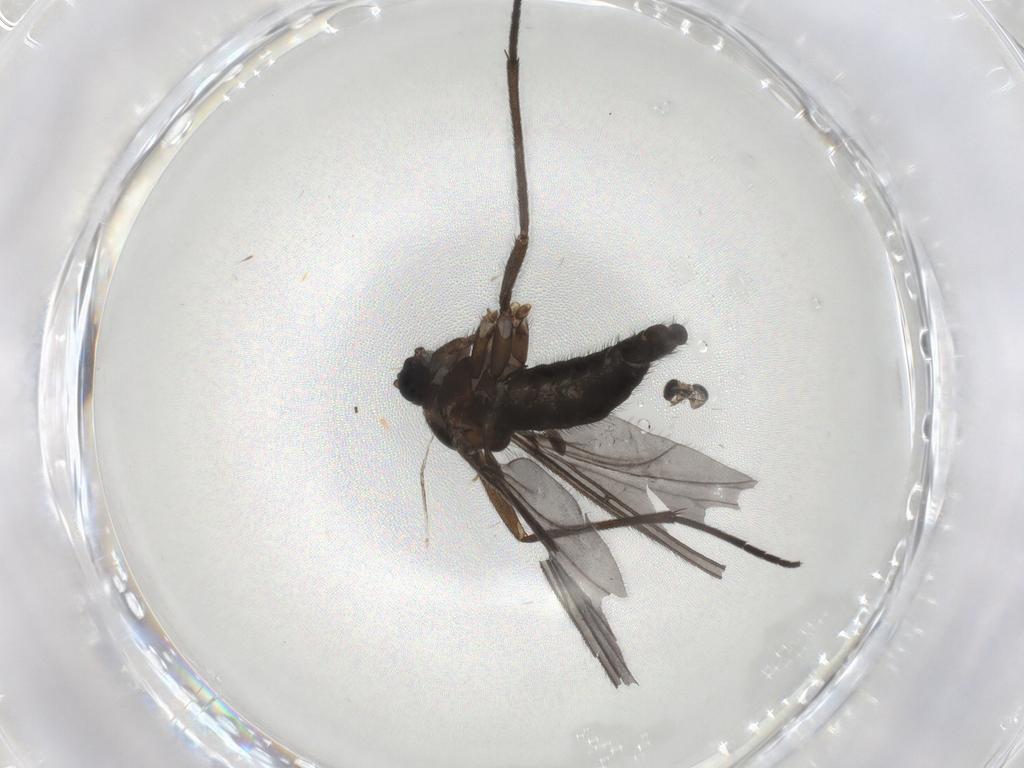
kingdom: Animalia
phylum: Arthropoda
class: Insecta
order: Diptera
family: Sciaridae
